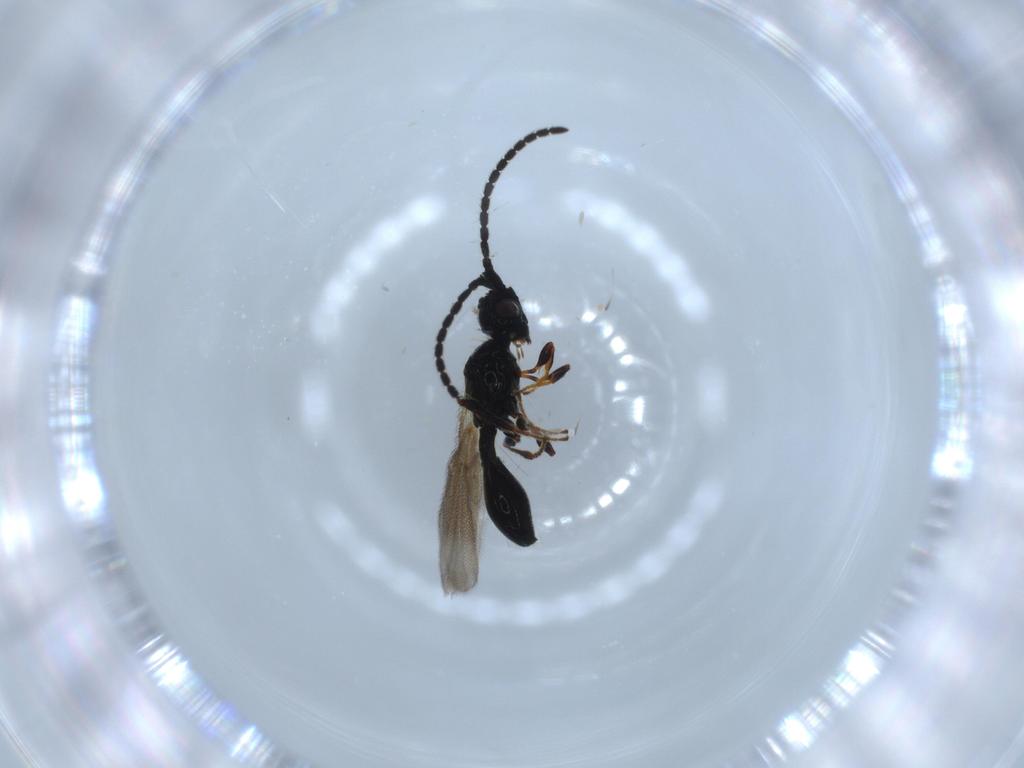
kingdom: Animalia
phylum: Arthropoda
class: Insecta
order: Hymenoptera
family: Diapriidae
